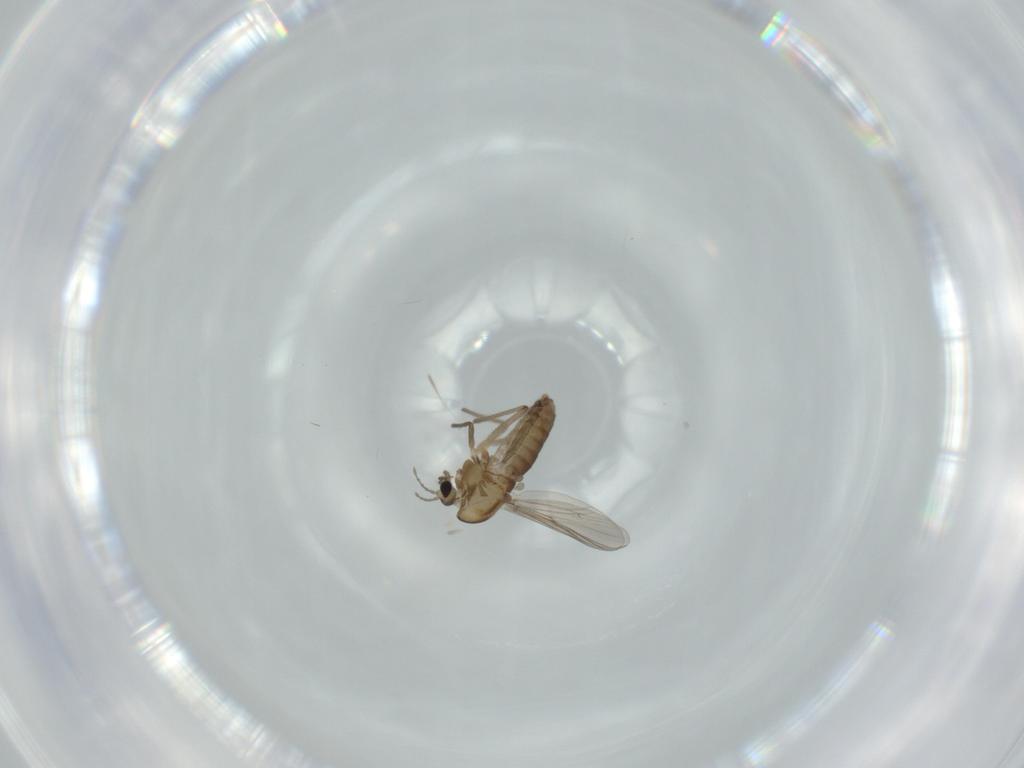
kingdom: Animalia
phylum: Arthropoda
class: Insecta
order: Diptera
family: Chironomidae
